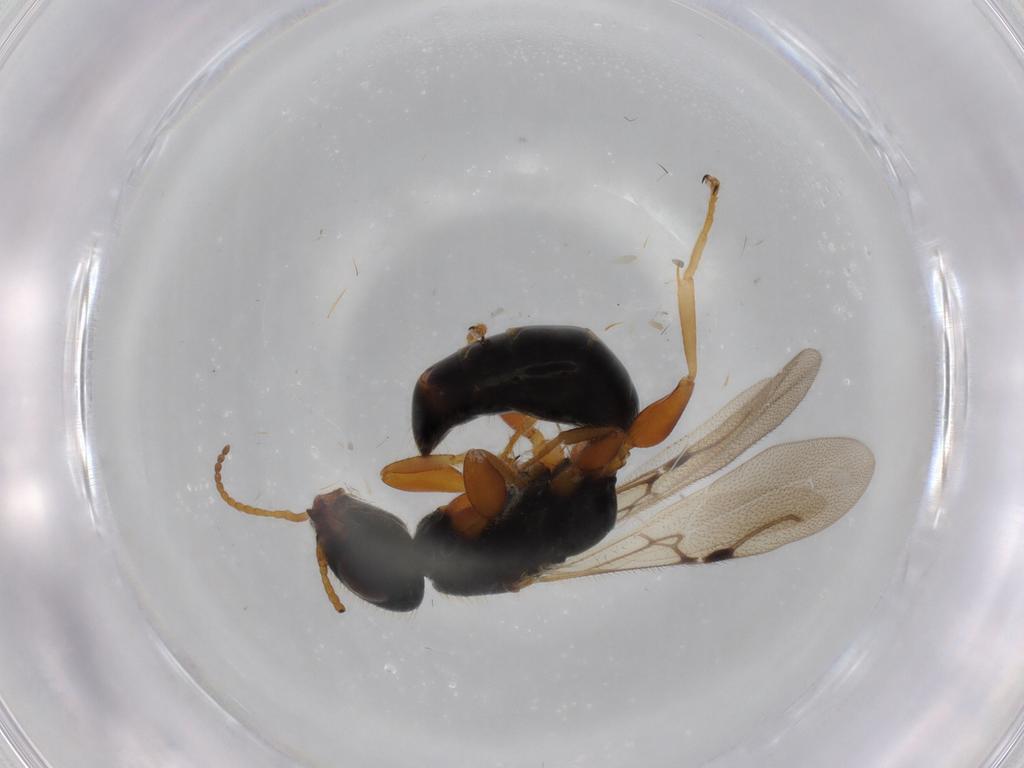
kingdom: Animalia
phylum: Arthropoda
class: Insecta
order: Hymenoptera
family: Bethylidae
